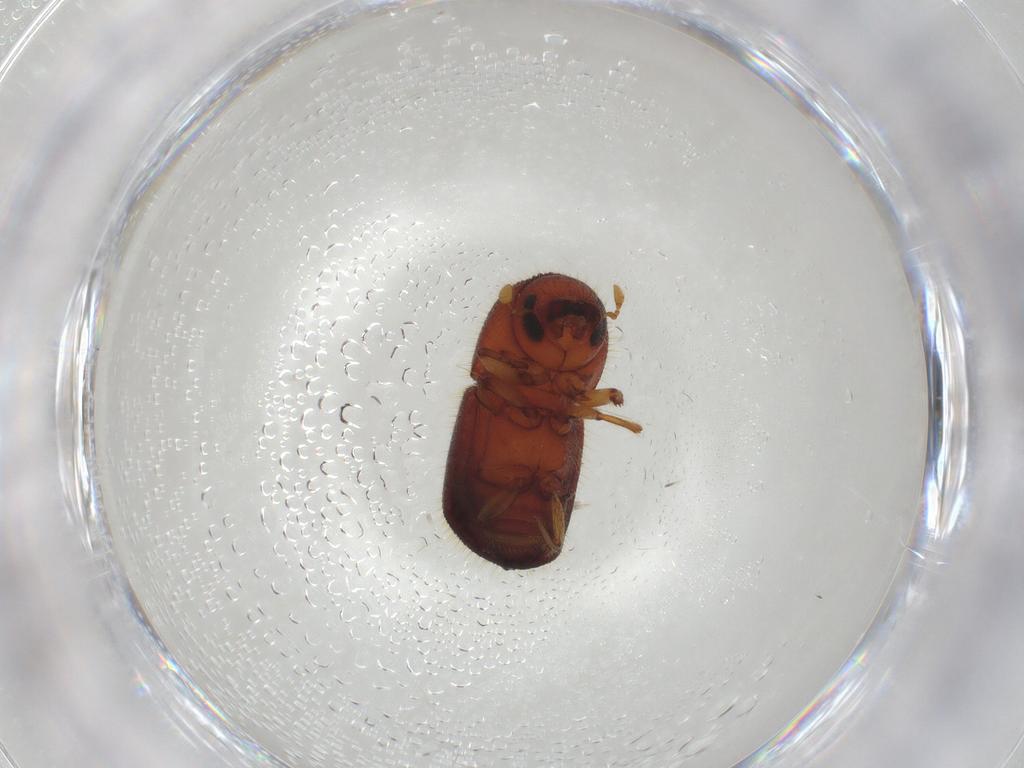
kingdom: Animalia
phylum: Arthropoda
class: Insecta
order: Coleoptera
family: Curculionidae
